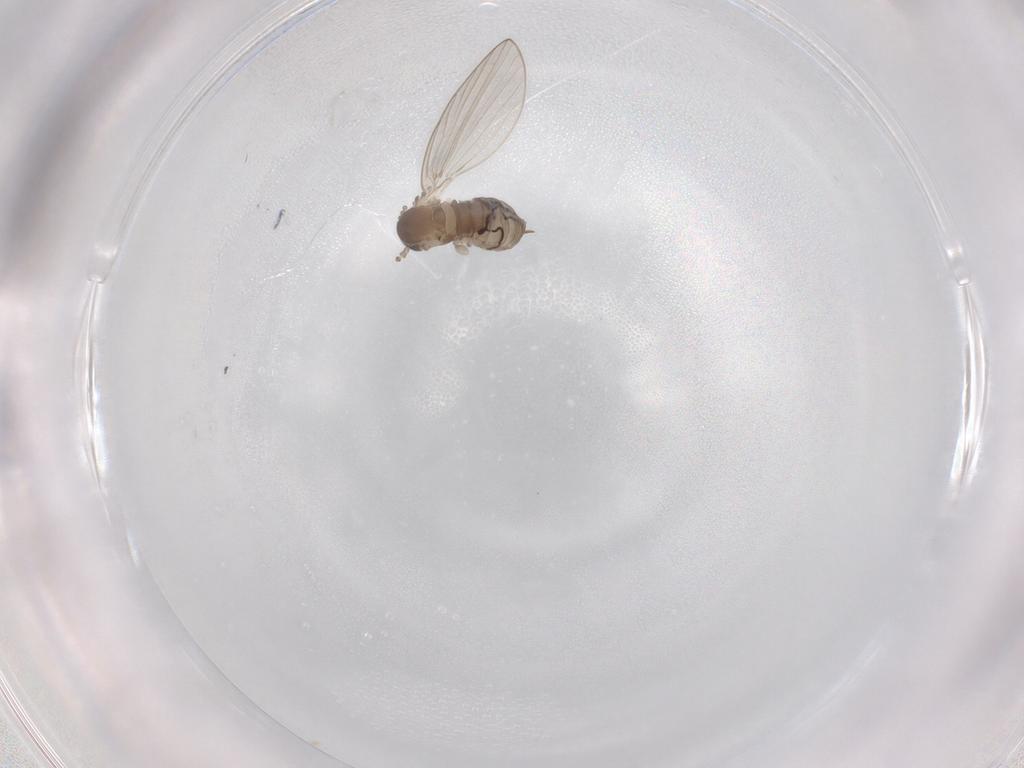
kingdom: Animalia
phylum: Arthropoda
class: Insecta
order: Diptera
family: Psychodidae
